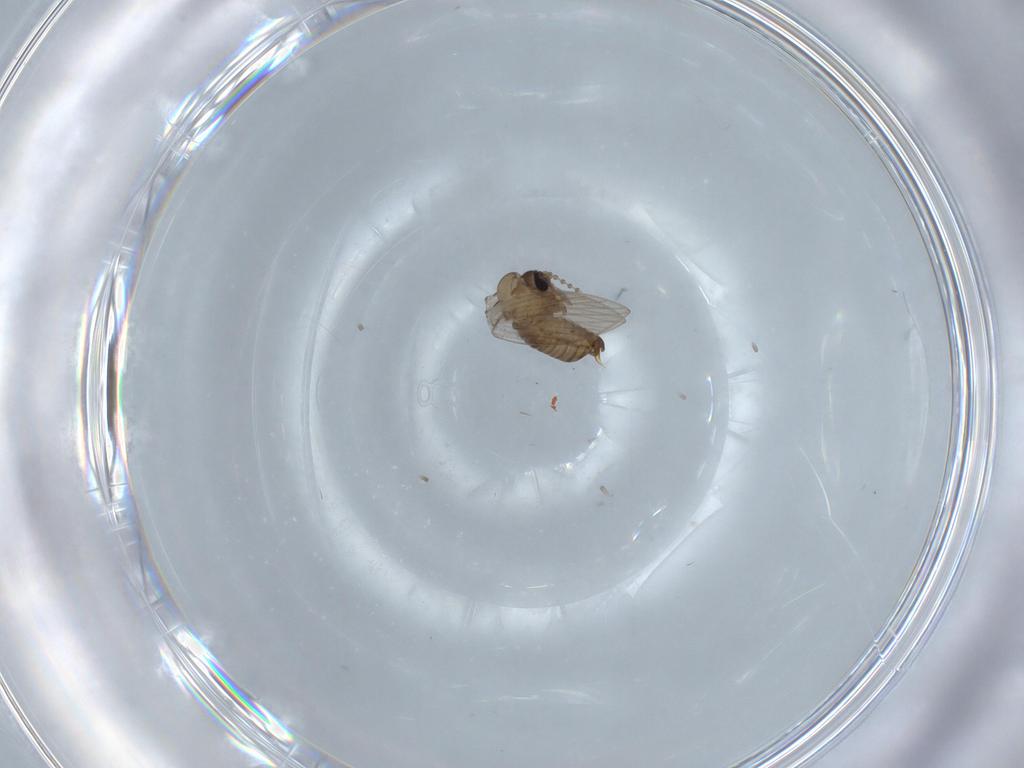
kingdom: Animalia
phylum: Arthropoda
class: Insecta
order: Diptera
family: Psychodidae
